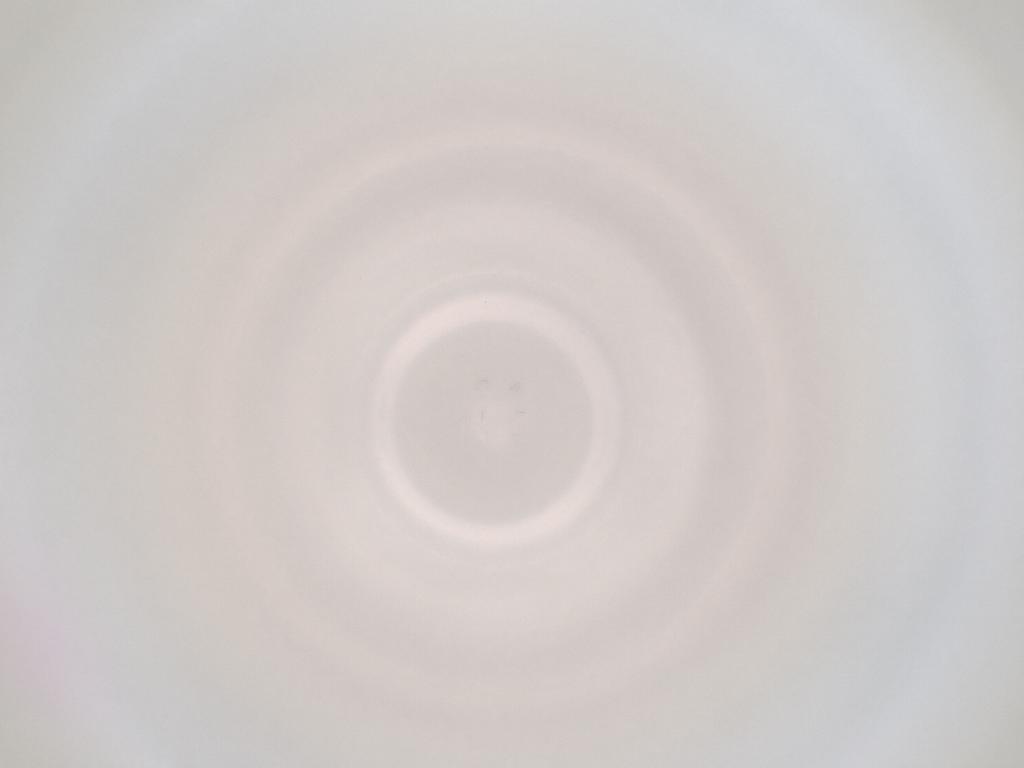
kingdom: Animalia
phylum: Arthropoda
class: Insecta
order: Diptera
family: Cecidomyiidae
